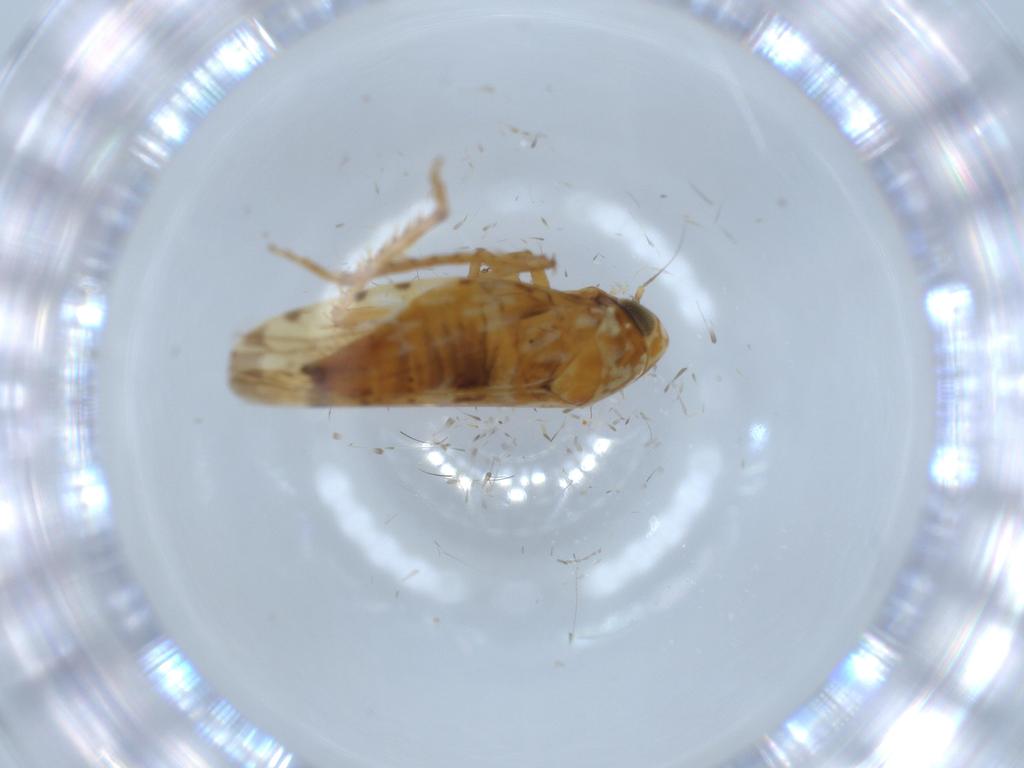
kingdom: Animalia
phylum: Arthropoda
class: Insecta
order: Hemiptera
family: Cicadellidae
